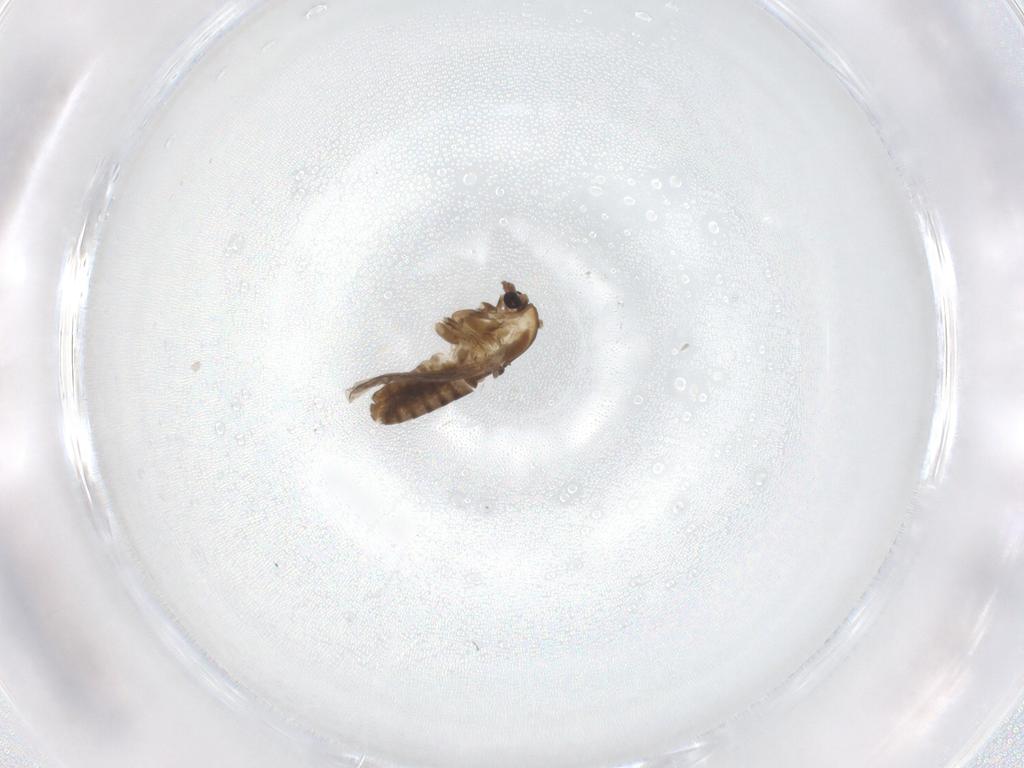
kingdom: Animalia
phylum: Arthropoda
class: Insecta
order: Diptera
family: Chironomidae
